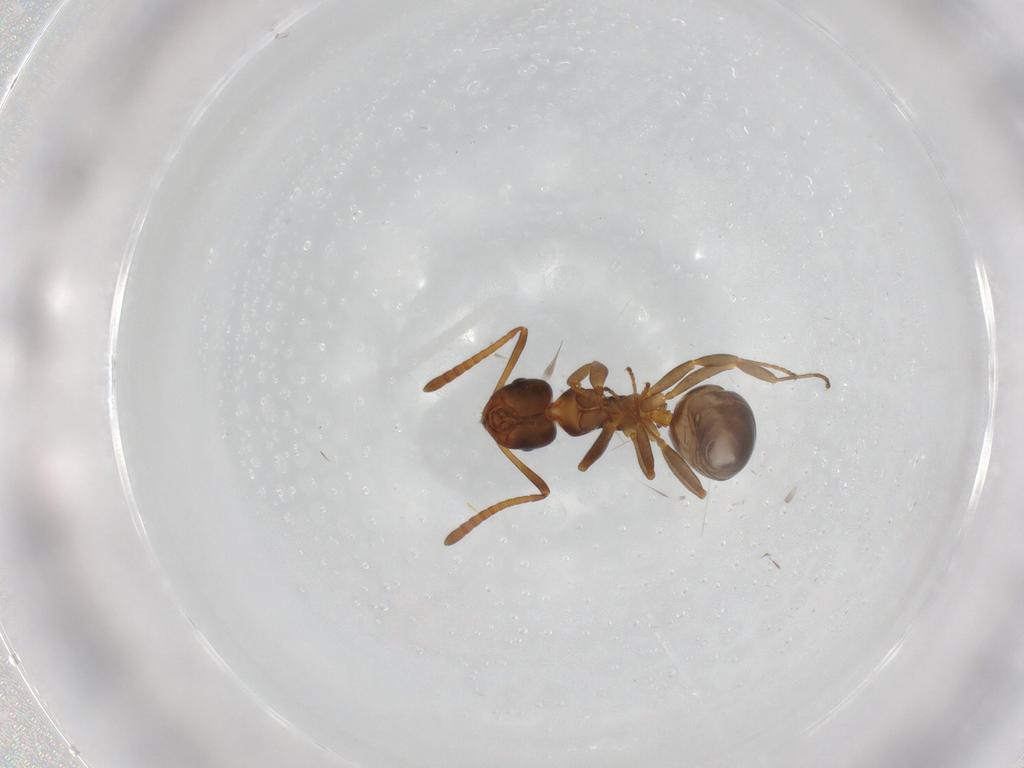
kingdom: Animalia
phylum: Arthropoda
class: Insecta
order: Hymenoptera
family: Formicidae
